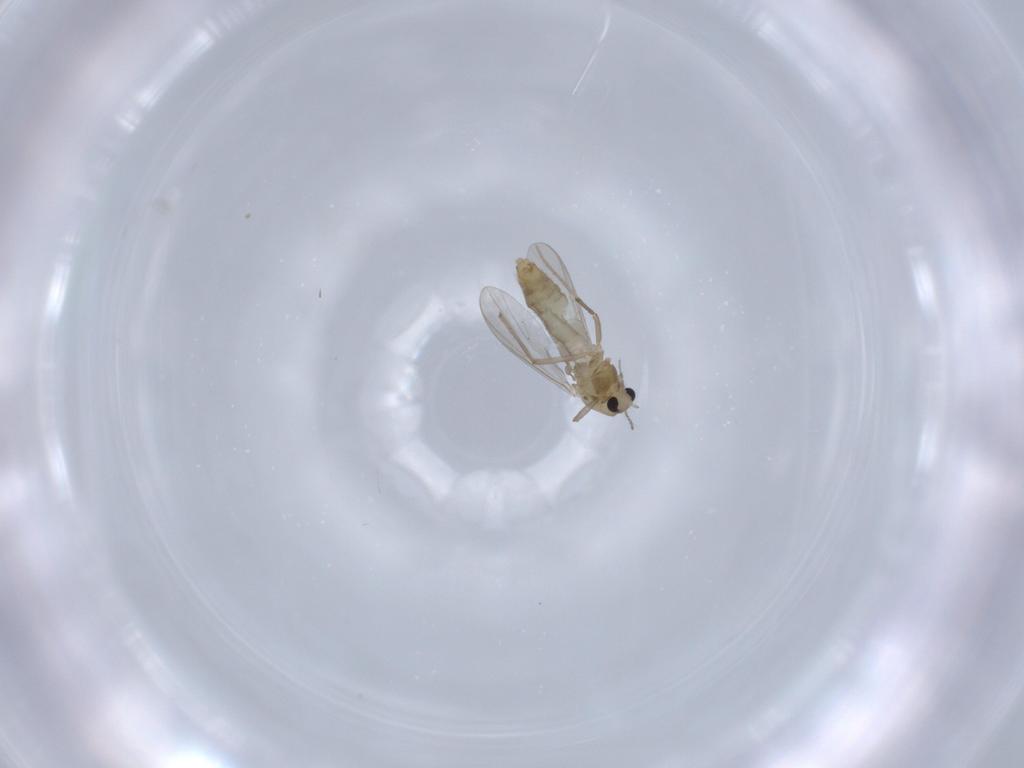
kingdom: Animalia
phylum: Arthropoda
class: Insecta
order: Diptera
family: Chironomidae
